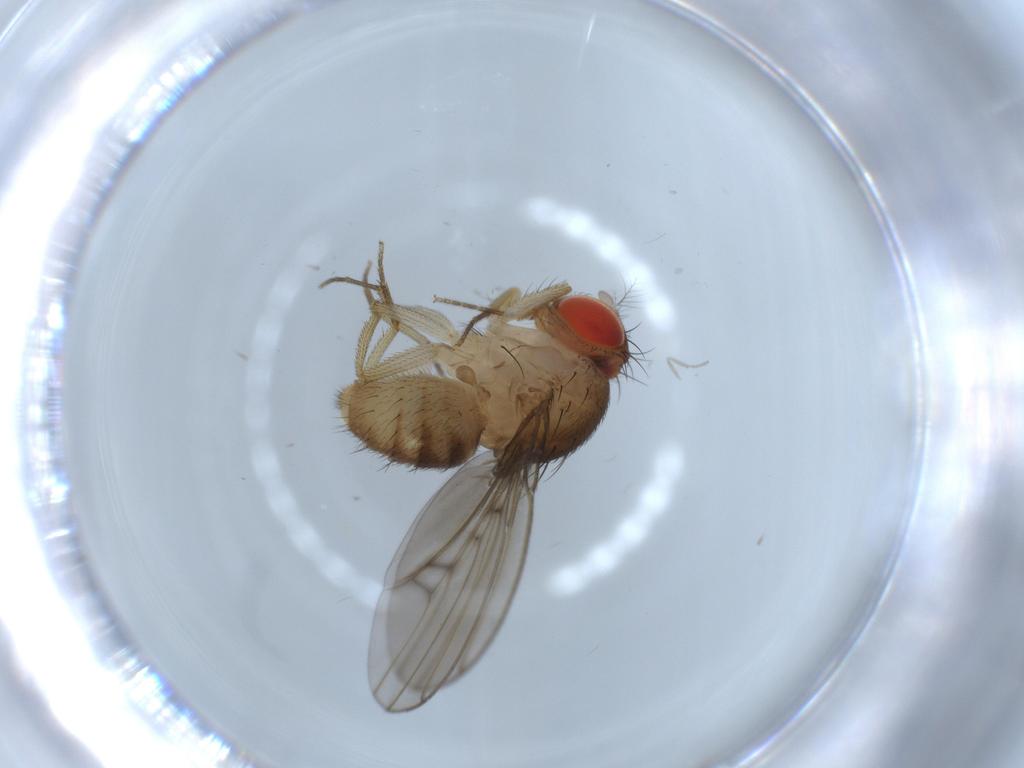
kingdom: Animalia
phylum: Arthropoda
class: Insecta
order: Diptera
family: Drosophilidae
